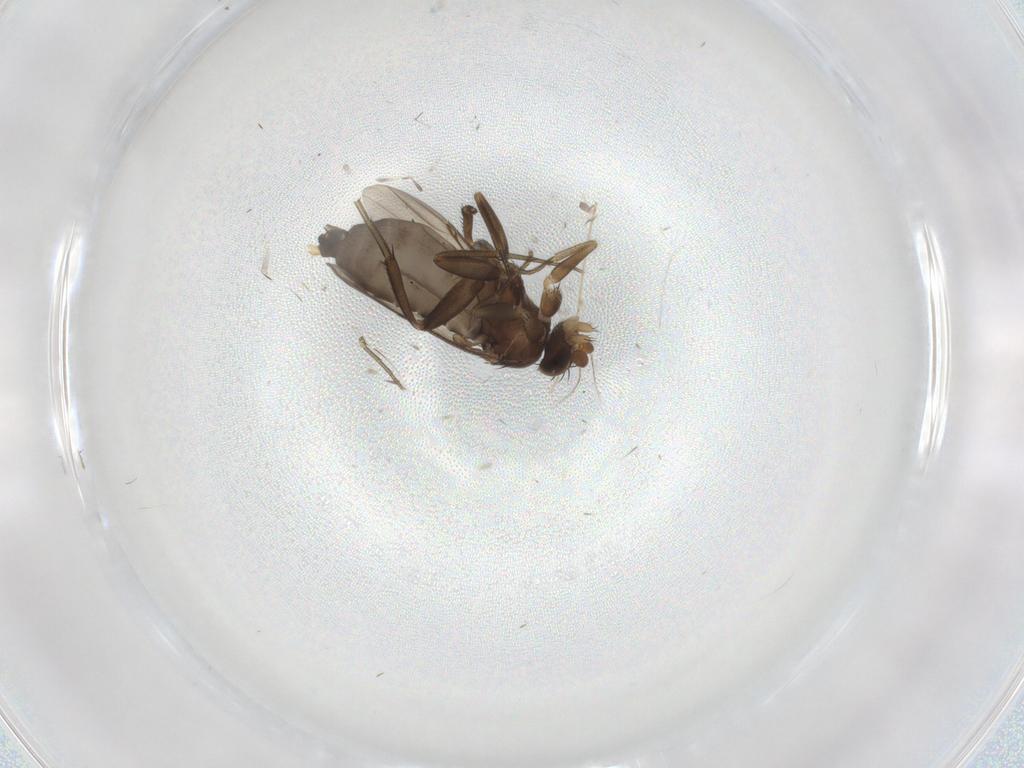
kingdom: Animalia
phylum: Arthropoda
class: Insecta
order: Diptera
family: Phoridae
